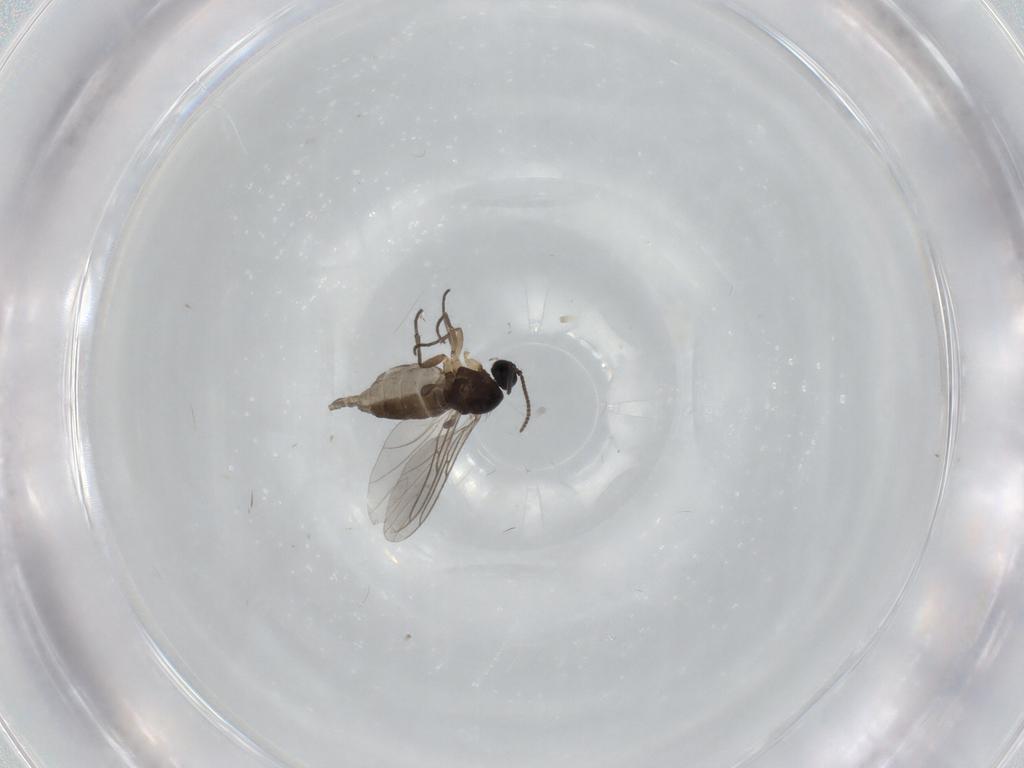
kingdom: Animalia
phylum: Arthropoda
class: Insecta
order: Diptera
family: Sciaridae
